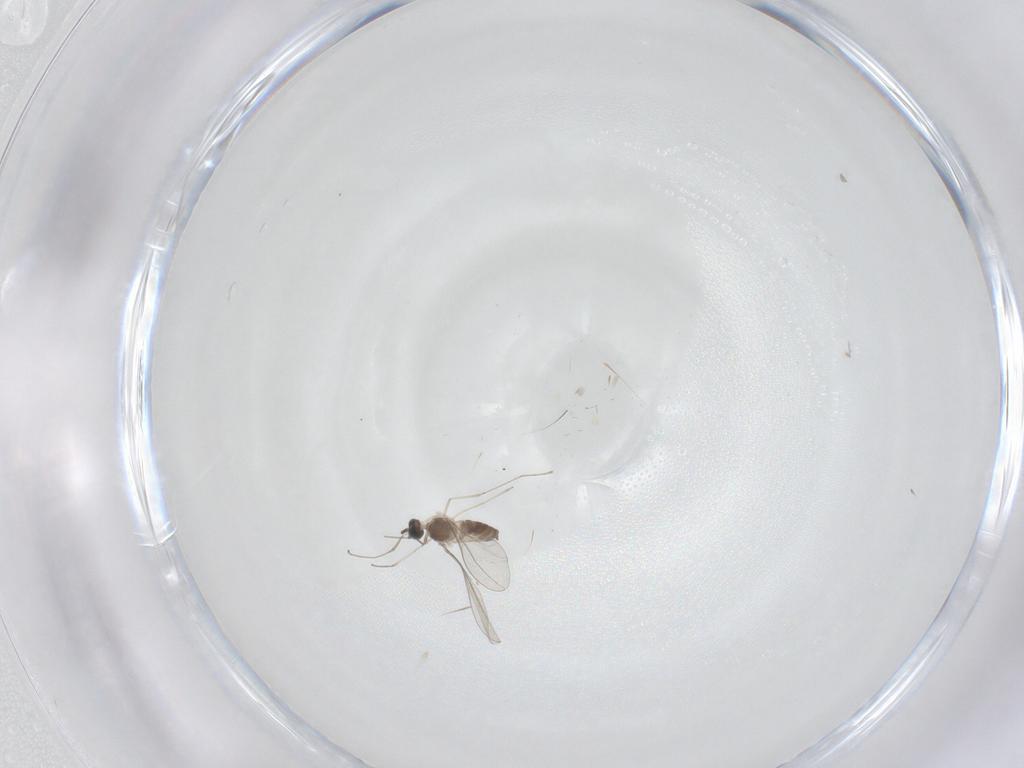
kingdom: Animalia
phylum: Arthropoda
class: Insecta
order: Diptera
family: Cecidomyiidae
